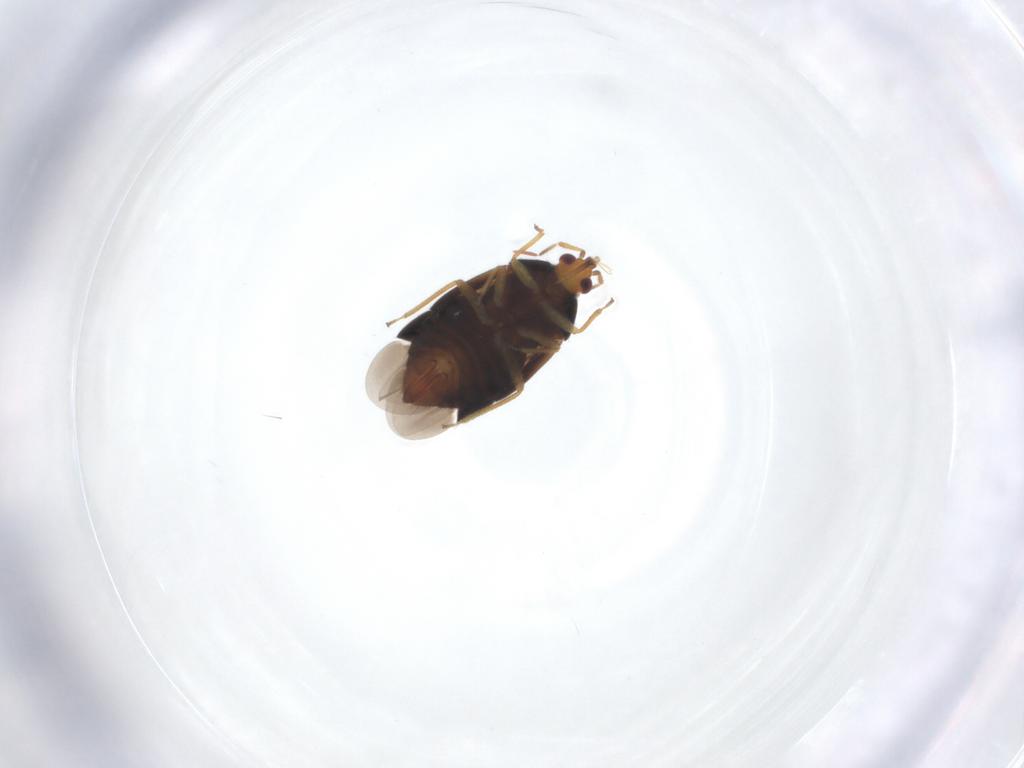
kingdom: Animalia
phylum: Arthropoda
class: Insecta
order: Hemiptera
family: Anthocoridae
